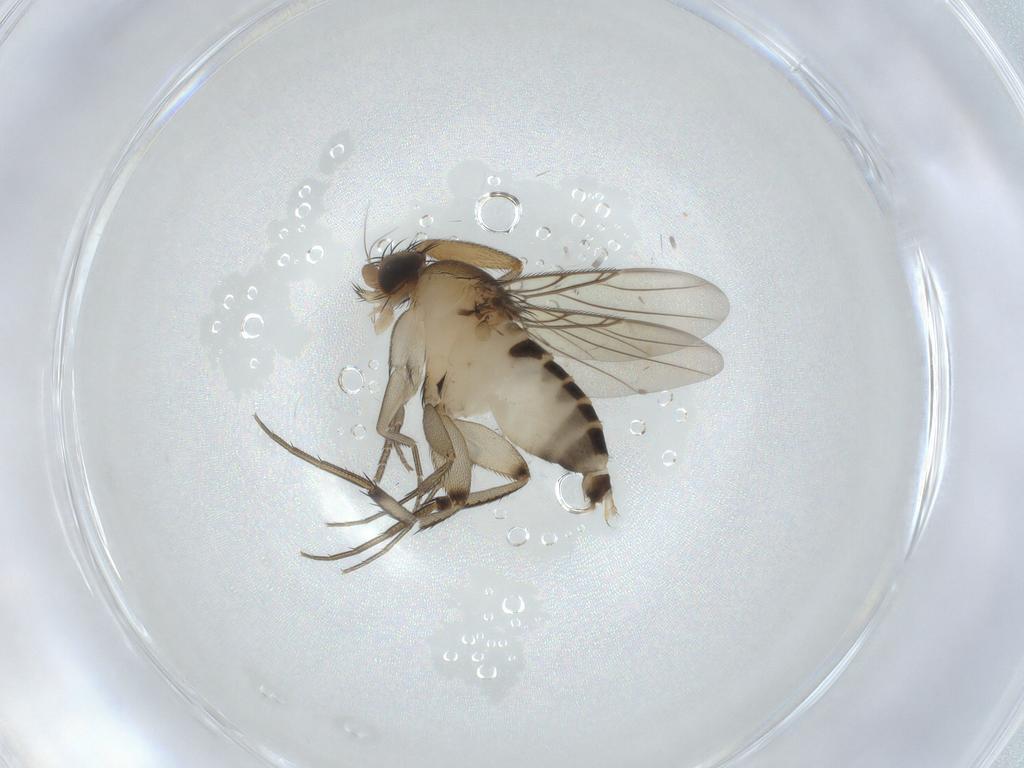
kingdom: Animalia
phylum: Arthropoda
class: Insecta
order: Diptera
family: Phoridae
